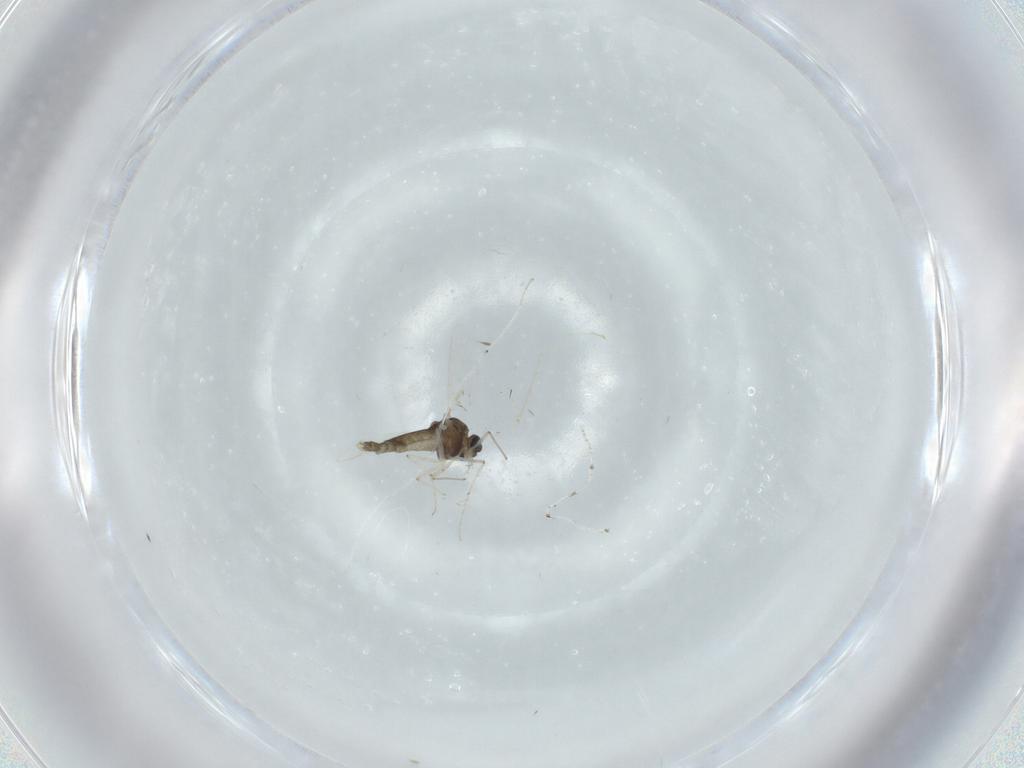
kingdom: Animalia
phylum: Arthropoda
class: Insecta
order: Diptera
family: Chironomidae
